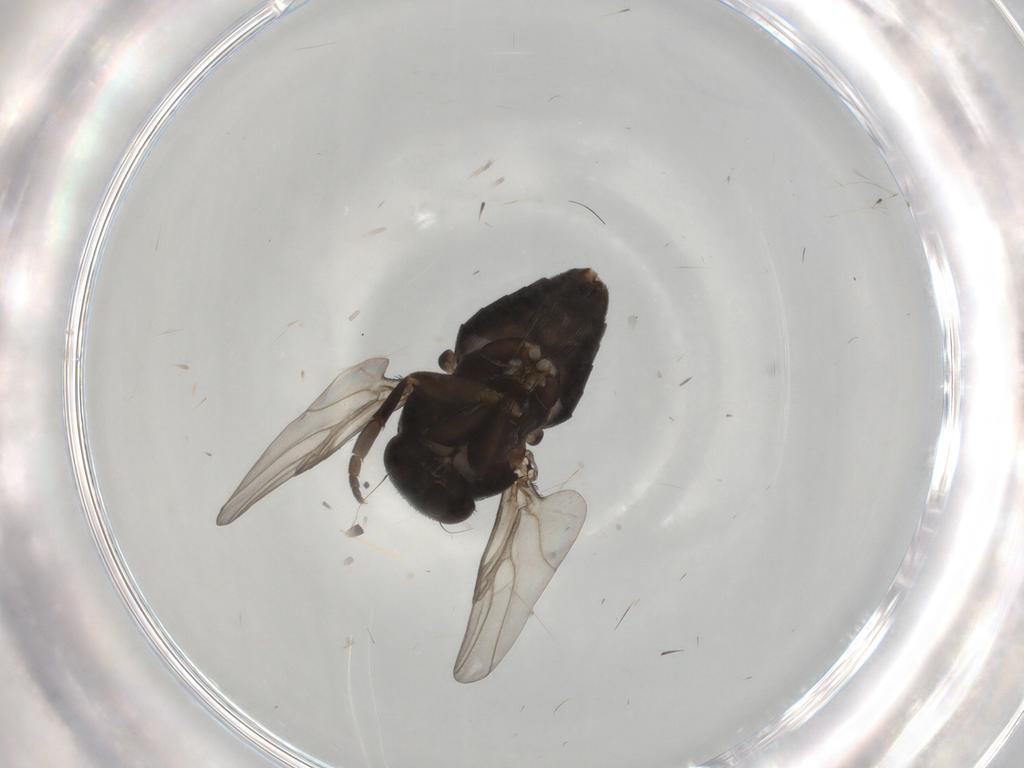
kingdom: Animalia
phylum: Arthropoda
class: Insecta
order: Diptera
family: Phoridae
